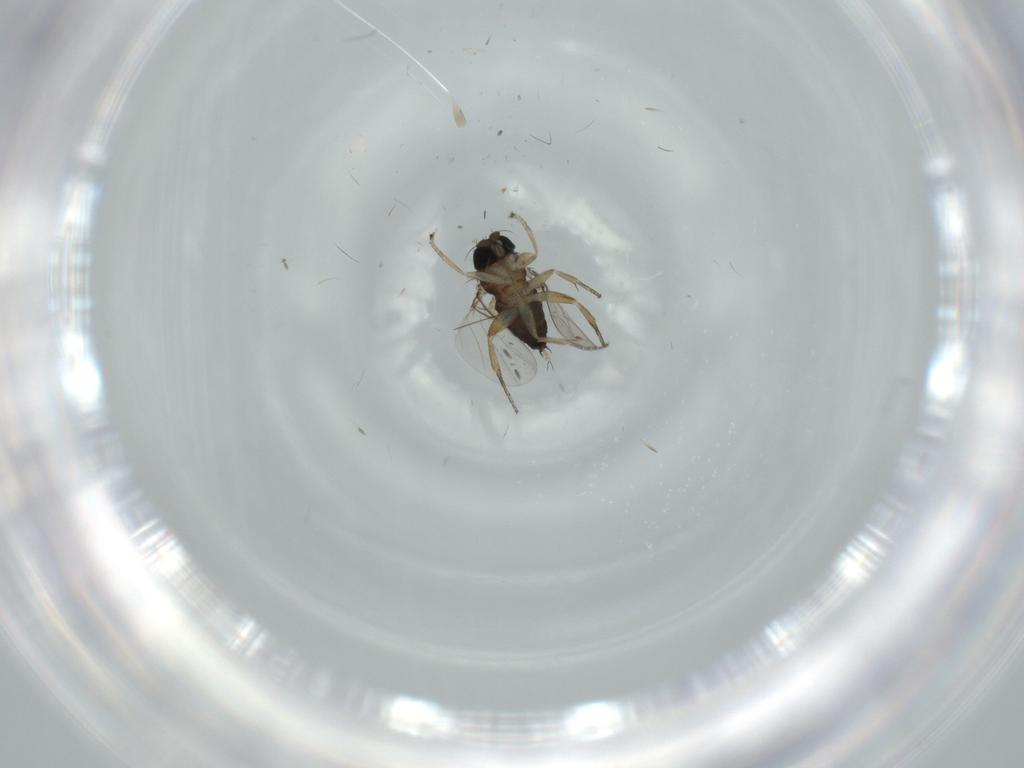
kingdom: Animalia
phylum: Arthropoda
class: Insecta
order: Diptera
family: Phoridae
